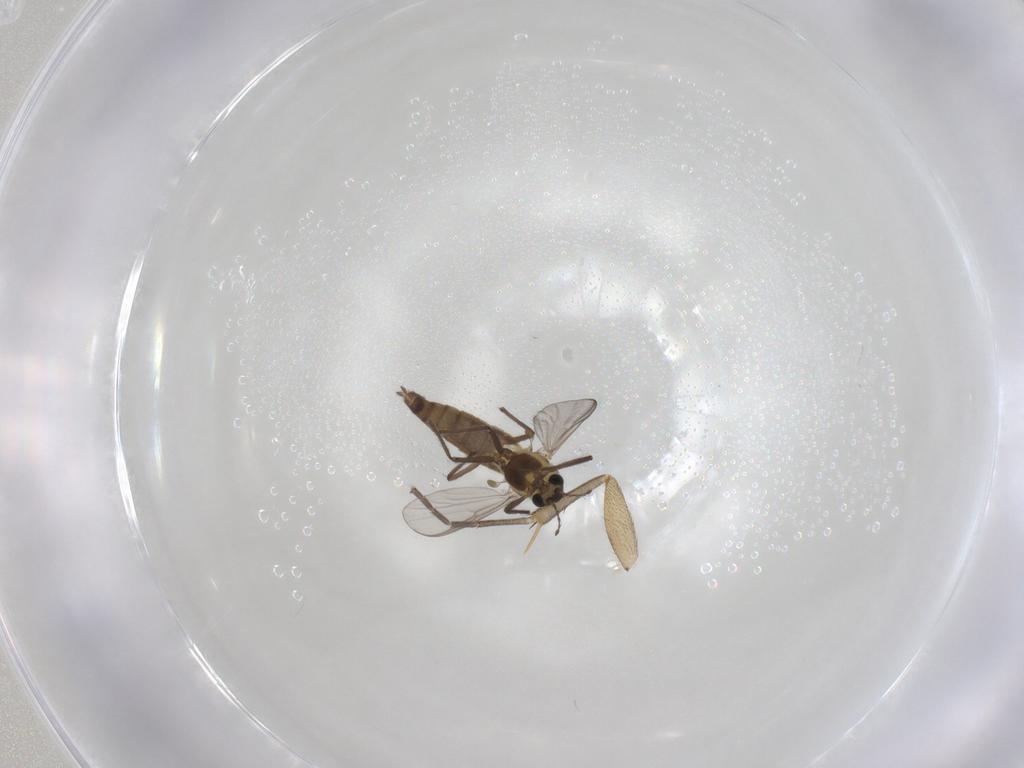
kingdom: Animalia
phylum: Arthropoda
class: Insecta
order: Diptera
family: Mycetophilidae
